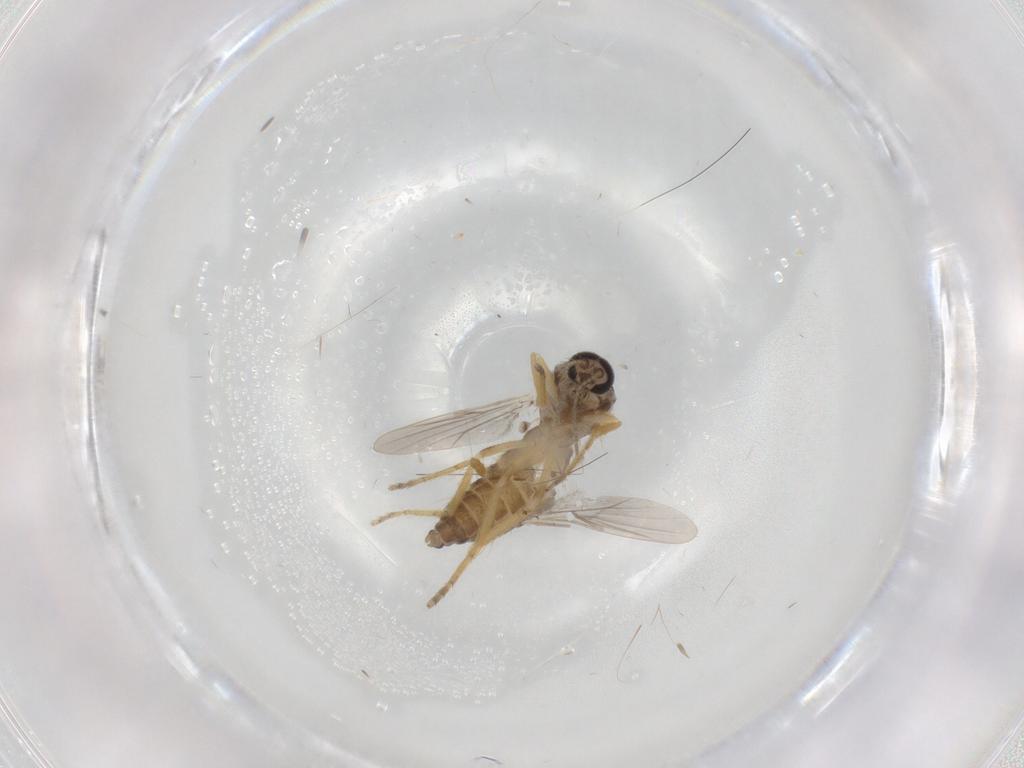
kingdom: Animalia
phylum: Arthropoda
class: Insecta
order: Diptera
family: Ceratopogonidae
